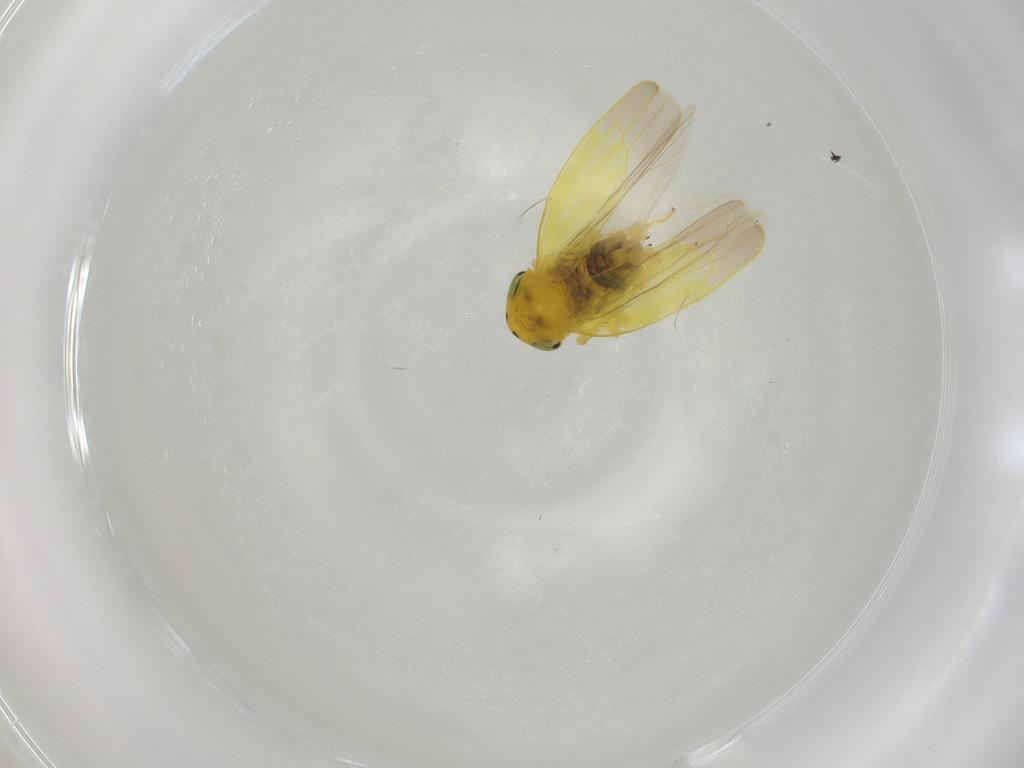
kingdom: Animalia
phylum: Arthropoda
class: Insecta
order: Hemiptera
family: Cicadellidae
